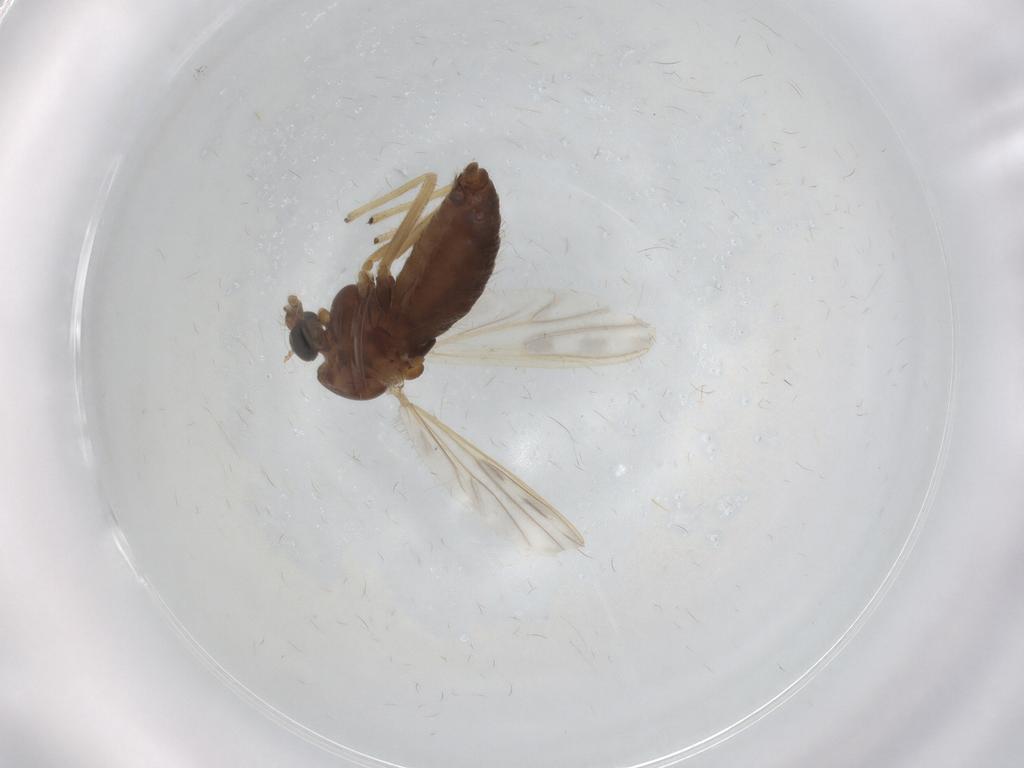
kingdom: Animalia
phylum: Arthropoda
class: Insecta
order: Diptera
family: Chironomidae
